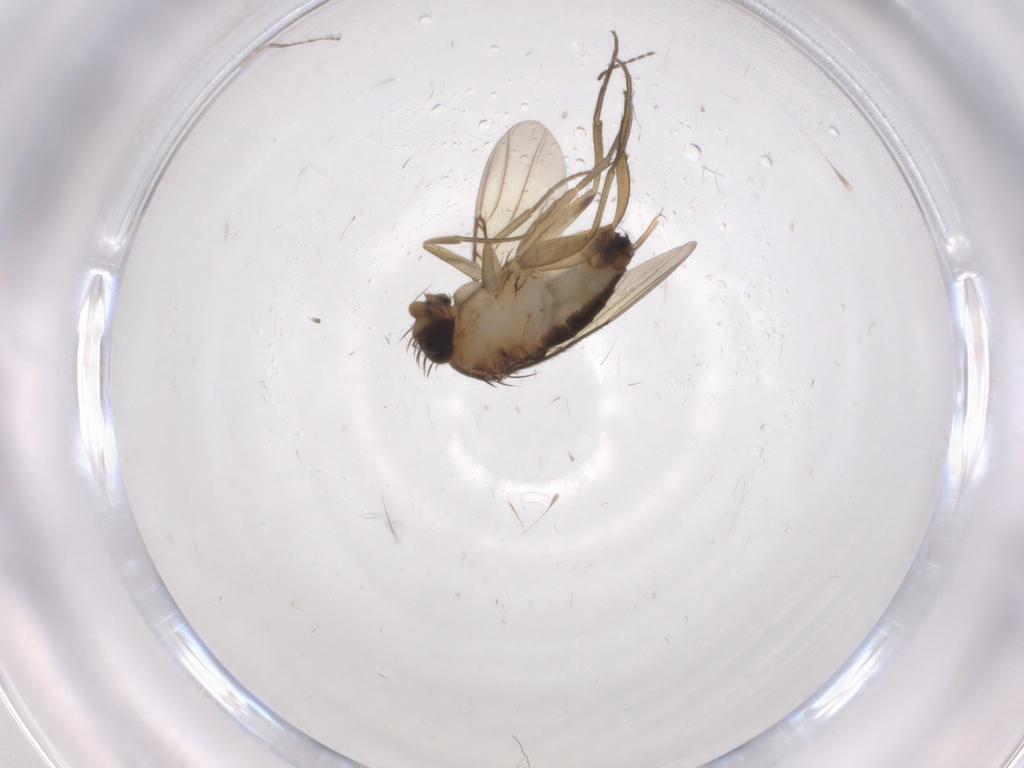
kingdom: Animalia
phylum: Arthropoda
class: Insecta
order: Diptera
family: Phoridae
